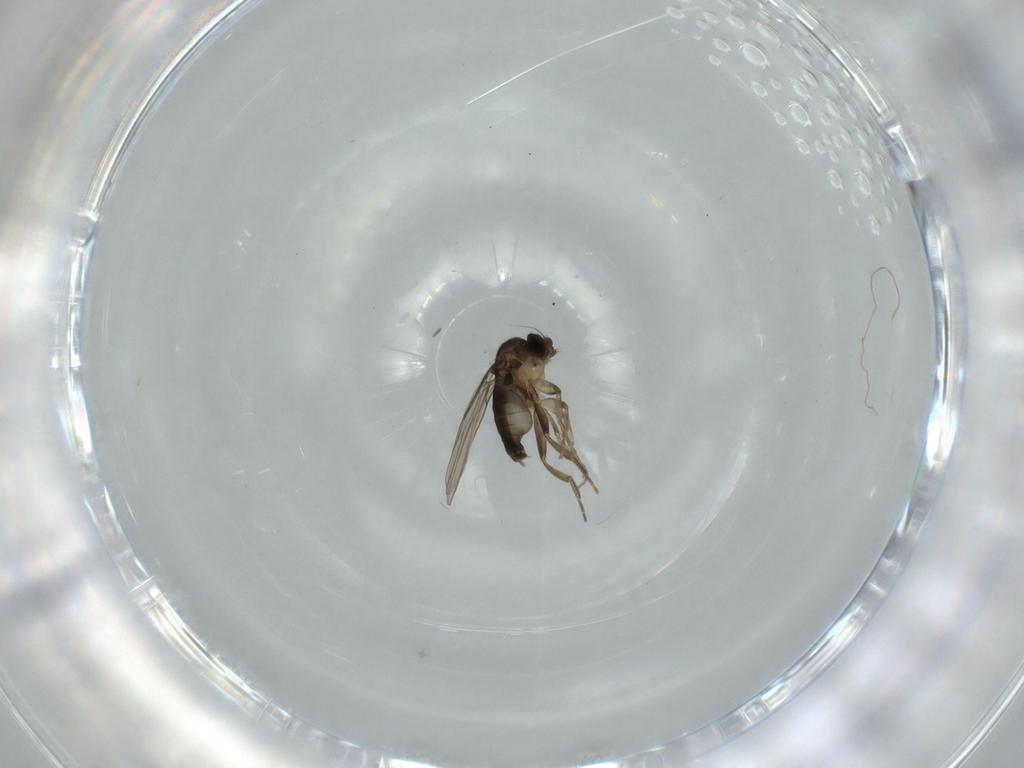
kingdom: Animalia
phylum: Arthropoda
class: Insecta
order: Diptera
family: Phoridae
